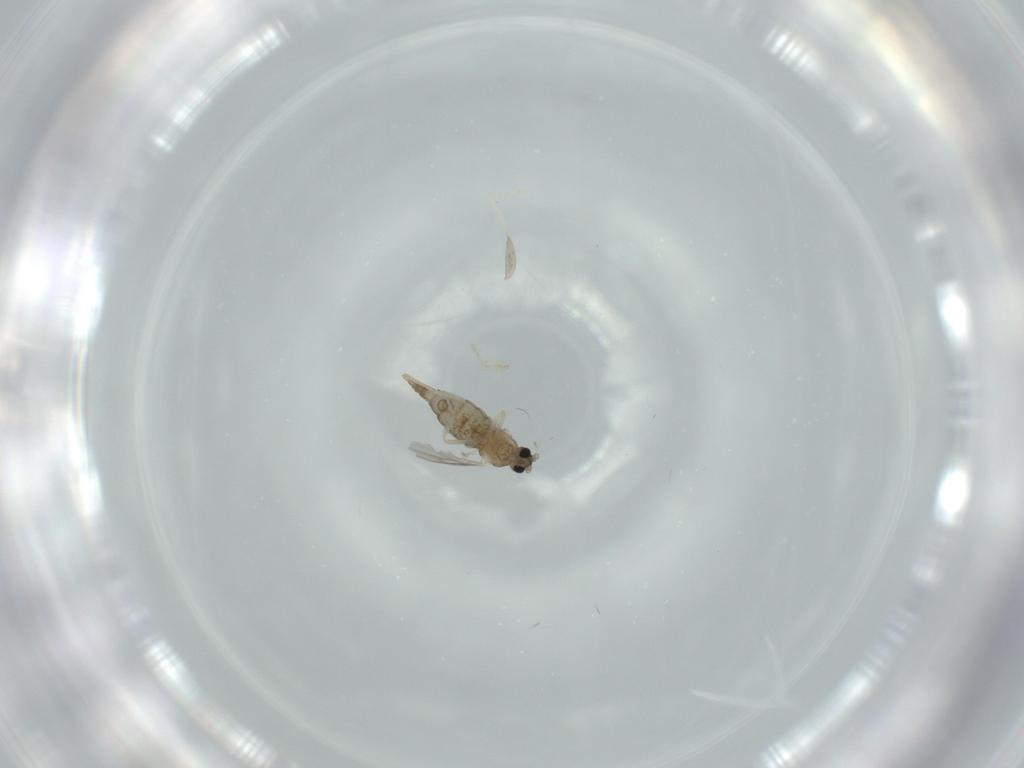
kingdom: Animalia
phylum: Arthropoda
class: Insecta
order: Diptera
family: Cecidomyiidae
